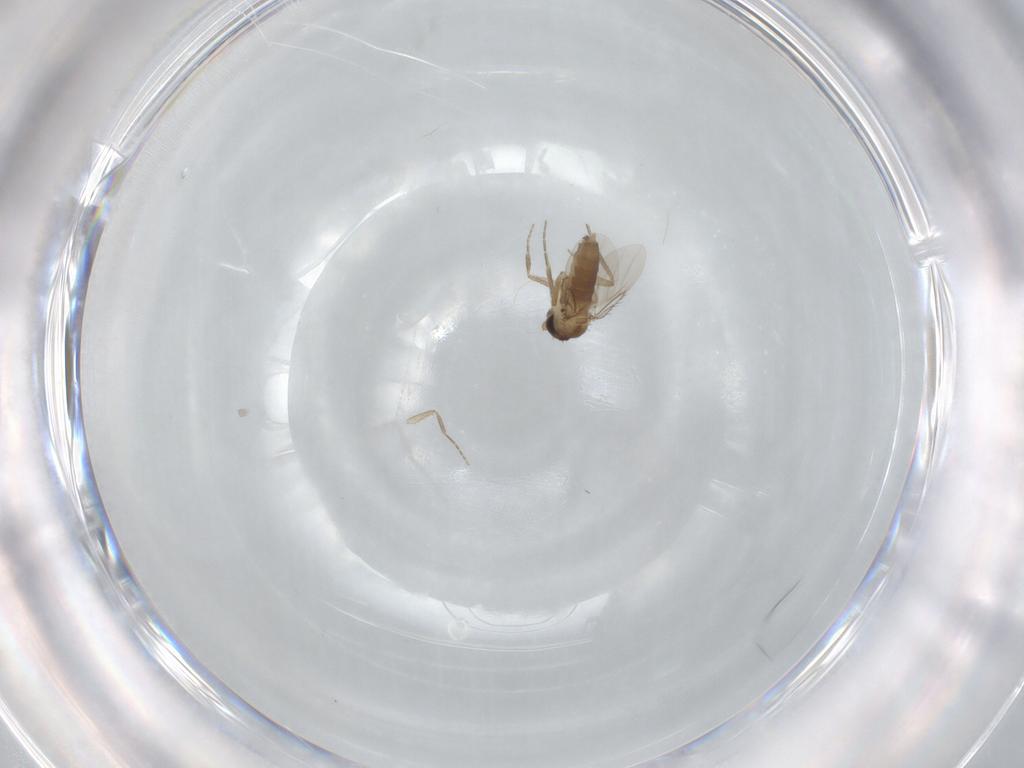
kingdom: Animalia
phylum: Arthropoda
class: Insecta
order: Diptera
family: Phoridae
